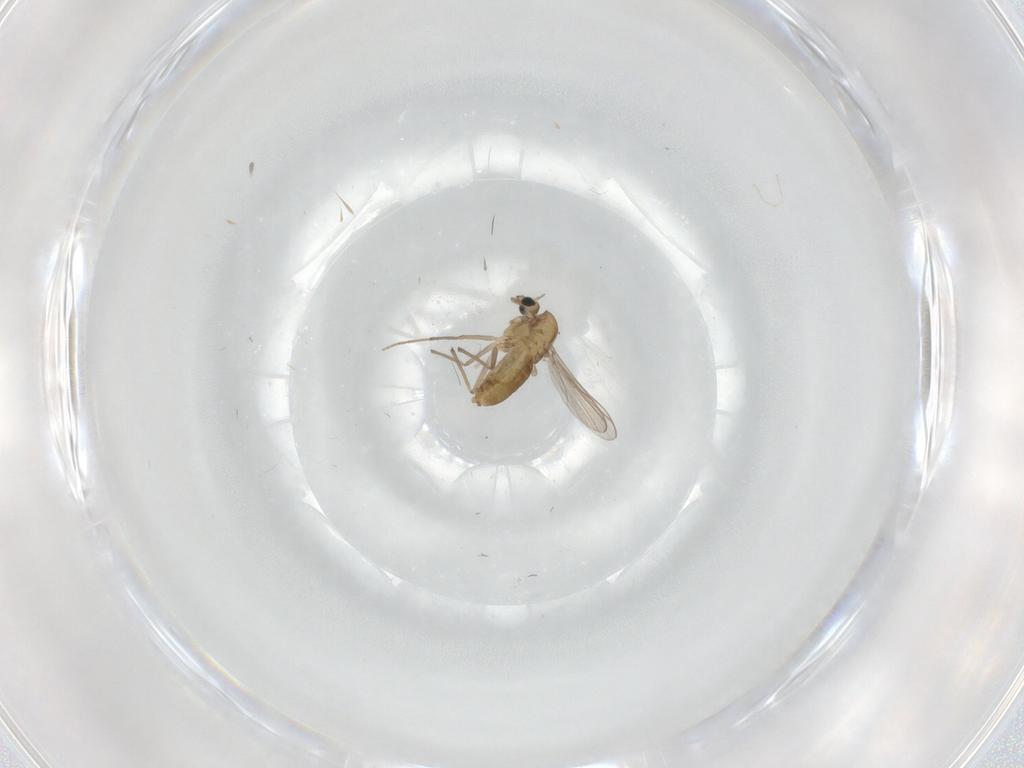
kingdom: Animalia
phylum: Arthropoda
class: Insecta
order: Diptera
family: Chironomidae
